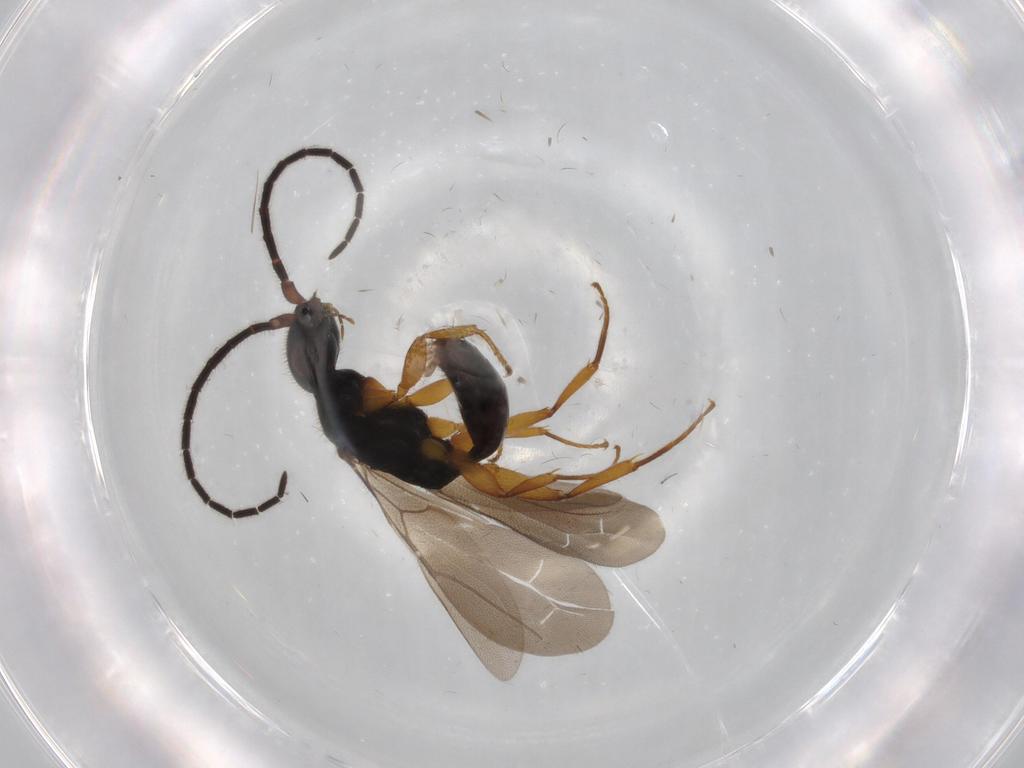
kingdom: Animalia
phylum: Arthropoda
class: Insecta
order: Hymenoptera
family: Bethylidae
